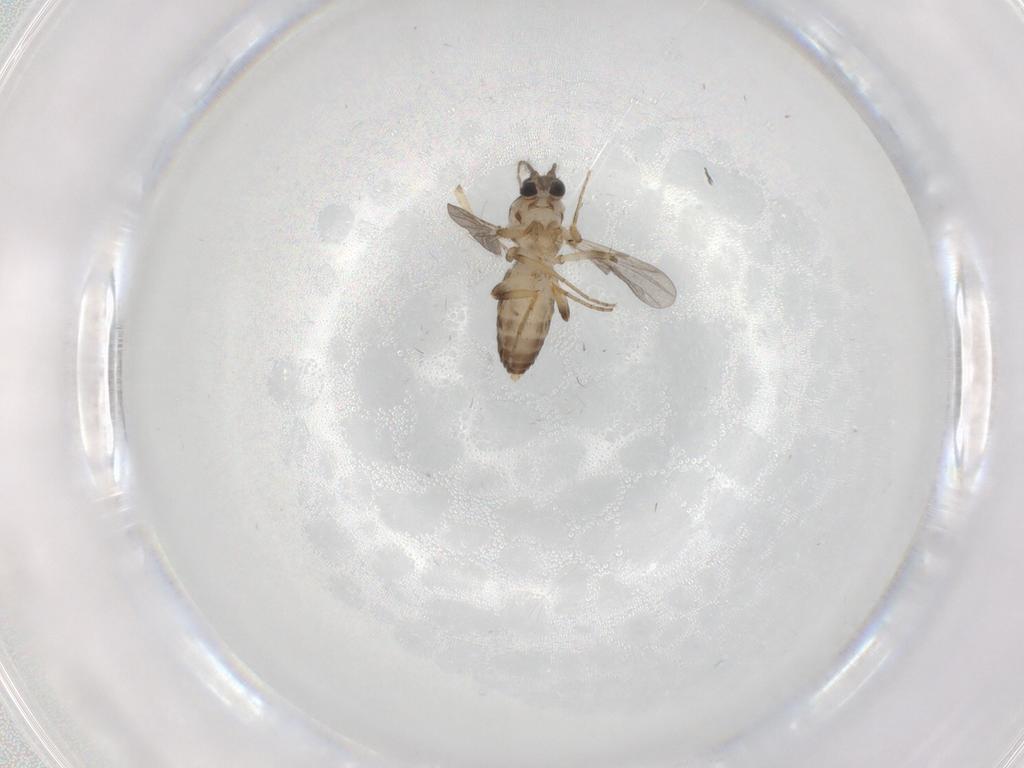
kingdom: Animalia
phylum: Arthropoda
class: Insecta
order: Diptera
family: Ceratopogonidae
